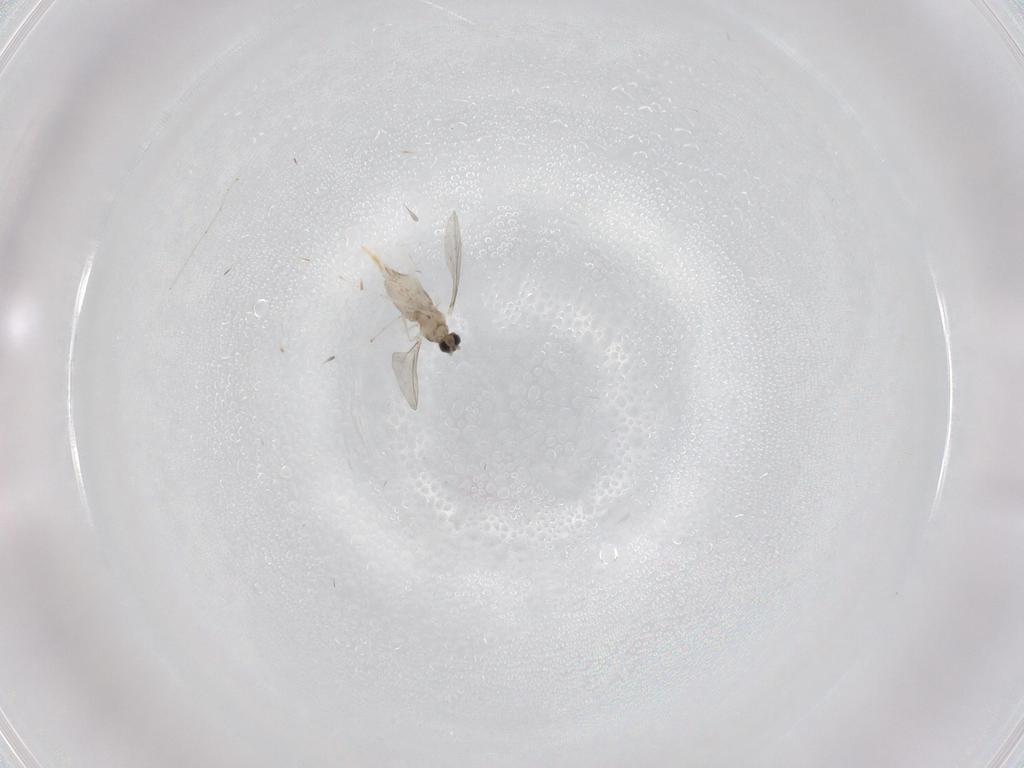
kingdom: Animalia
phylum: Arthropoda
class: Insecta
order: Diptera
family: Cecidomyiidae
